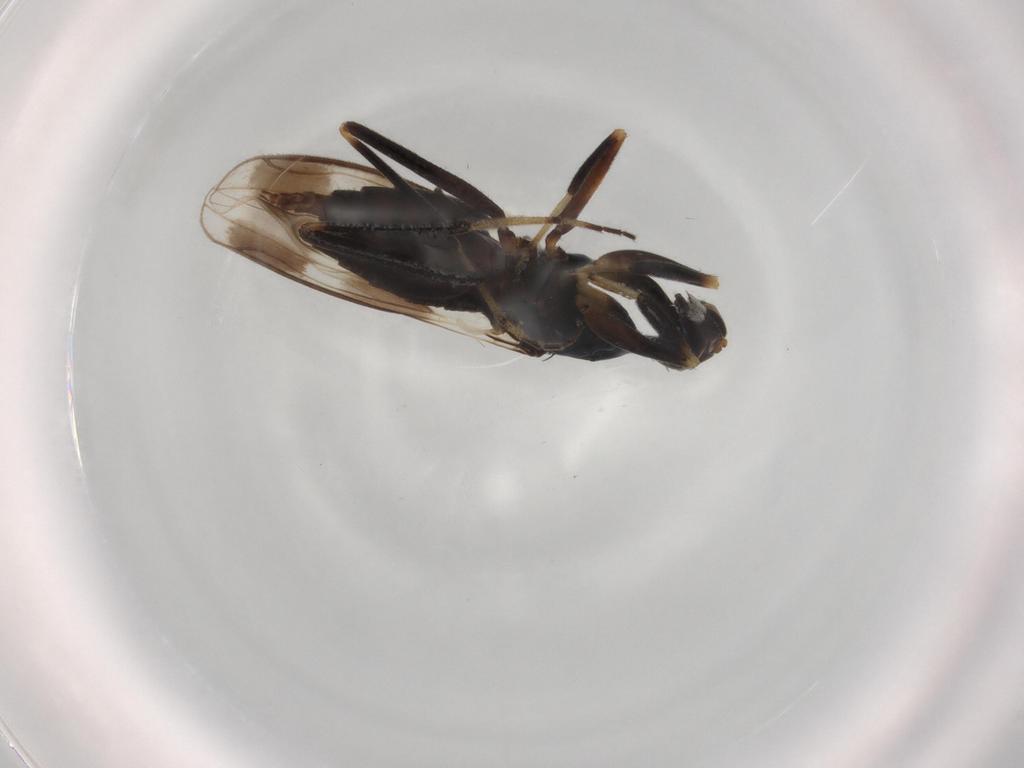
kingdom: Animalia
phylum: Arthropoda
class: Insecta
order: Diptera
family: Hybotidae
